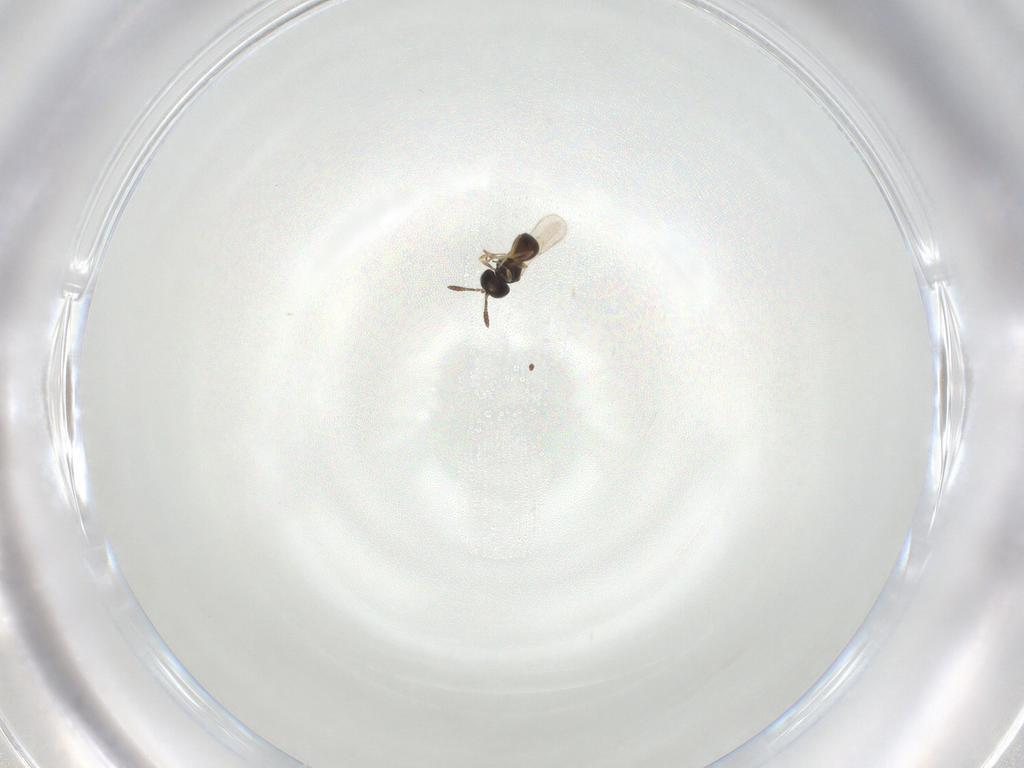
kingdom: Animalia
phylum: Arthropoda
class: Insecta
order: Hymenoptera
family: Scelionidae
